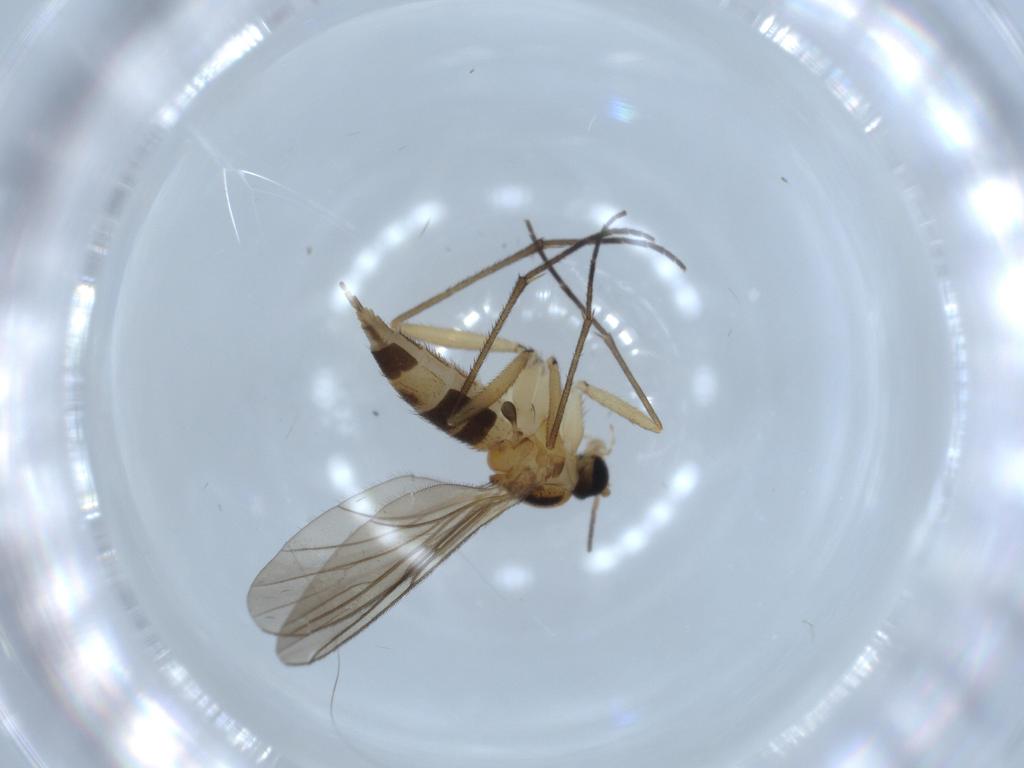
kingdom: Animalia
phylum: Arthropoda
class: Insecta
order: Diptera
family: Sciaridae
